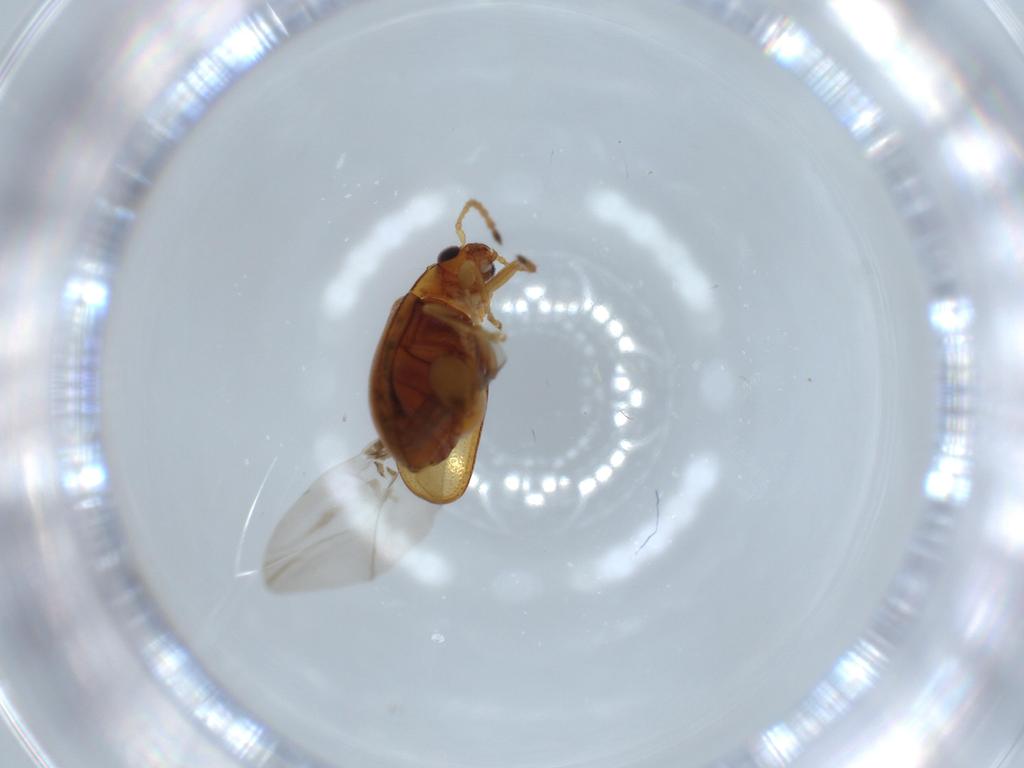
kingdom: Animalia
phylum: Arthropoda
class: Insecta
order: Coleoptera
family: Chrysomelidae
